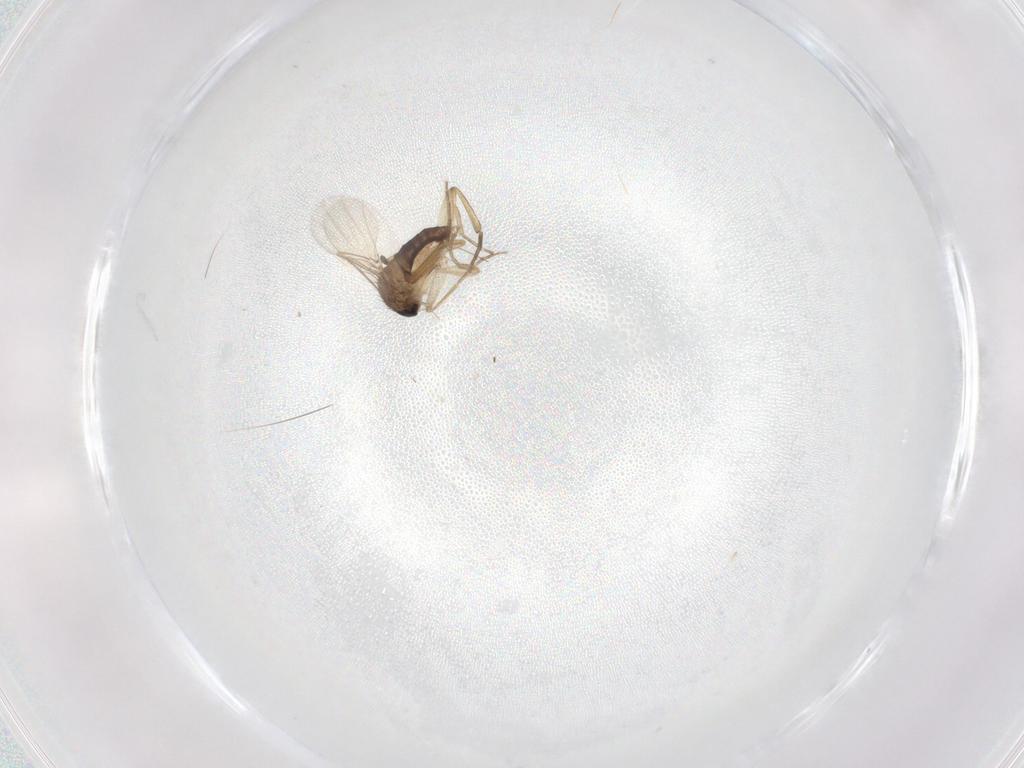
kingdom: Animalia
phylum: Arthropoda
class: Insecta
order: Diptera
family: Phoridae
